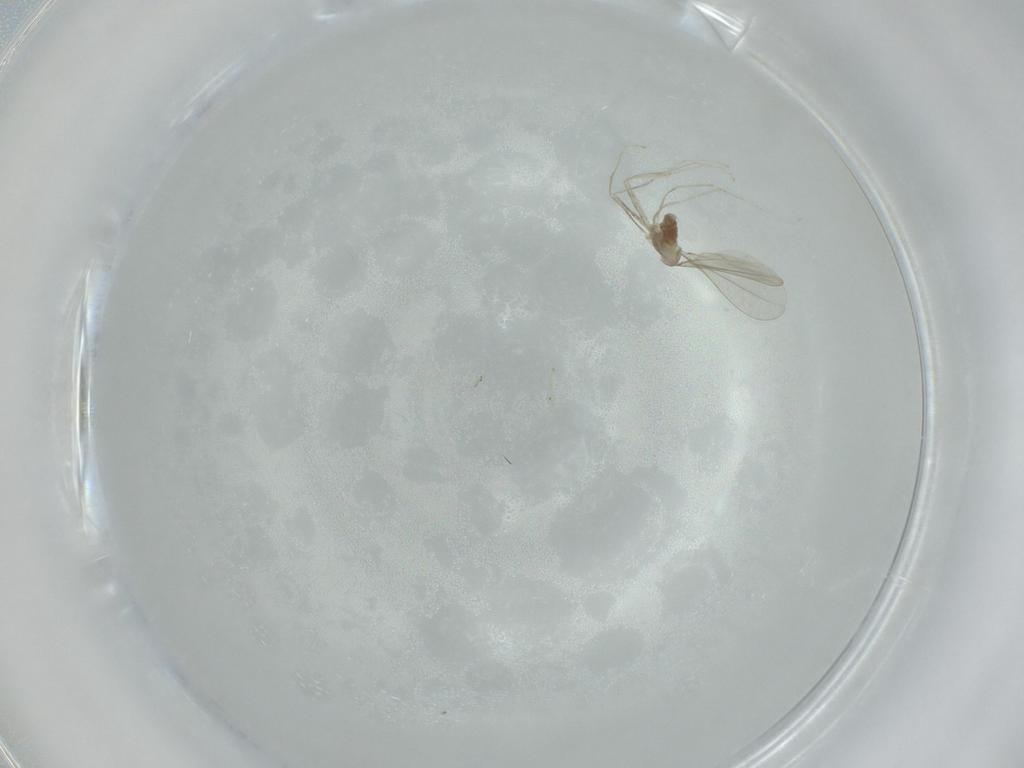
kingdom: Animalia
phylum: Arthropoda
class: Insecta
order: Diptera
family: Cecidomyiidae
